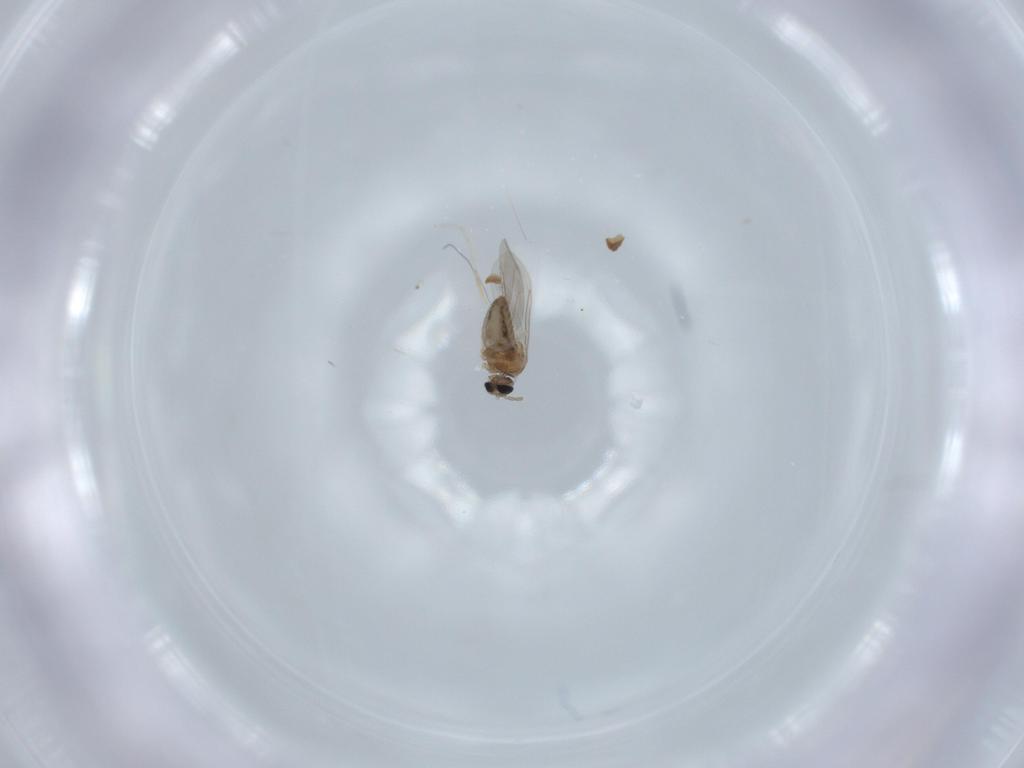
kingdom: Animalia
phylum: Arthropoda
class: Insecta
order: Diptera
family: Cecidomyiidae
